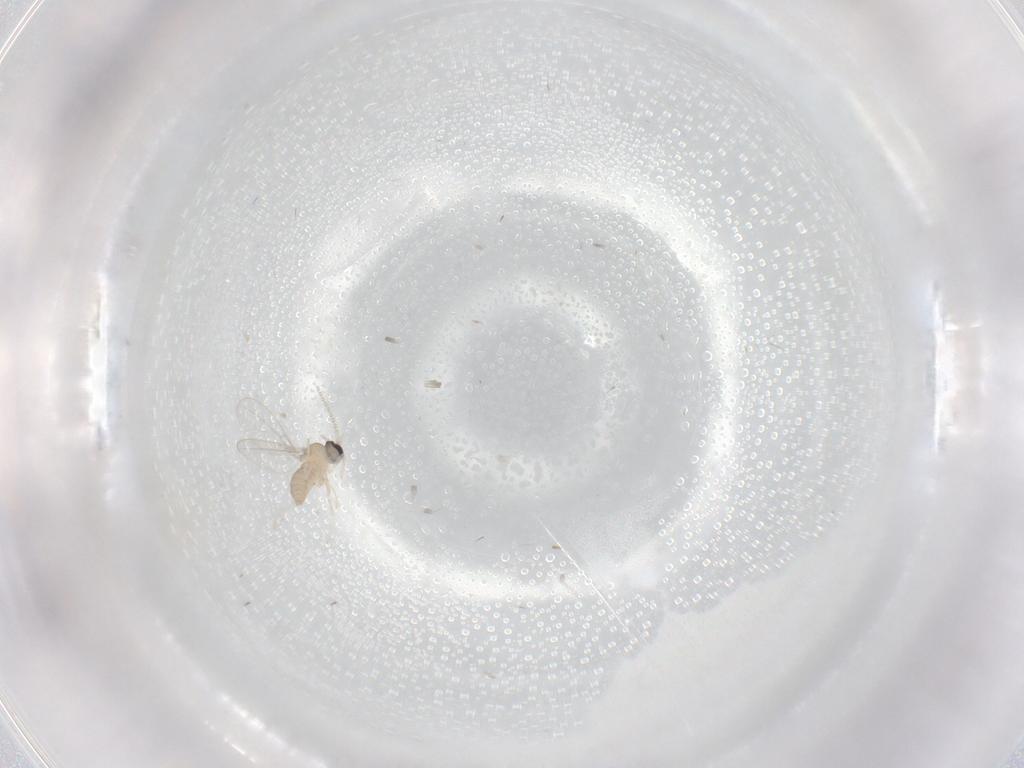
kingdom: Animalia
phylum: Arthropoda
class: Insecta
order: Diptera
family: Cecidomyiidae
